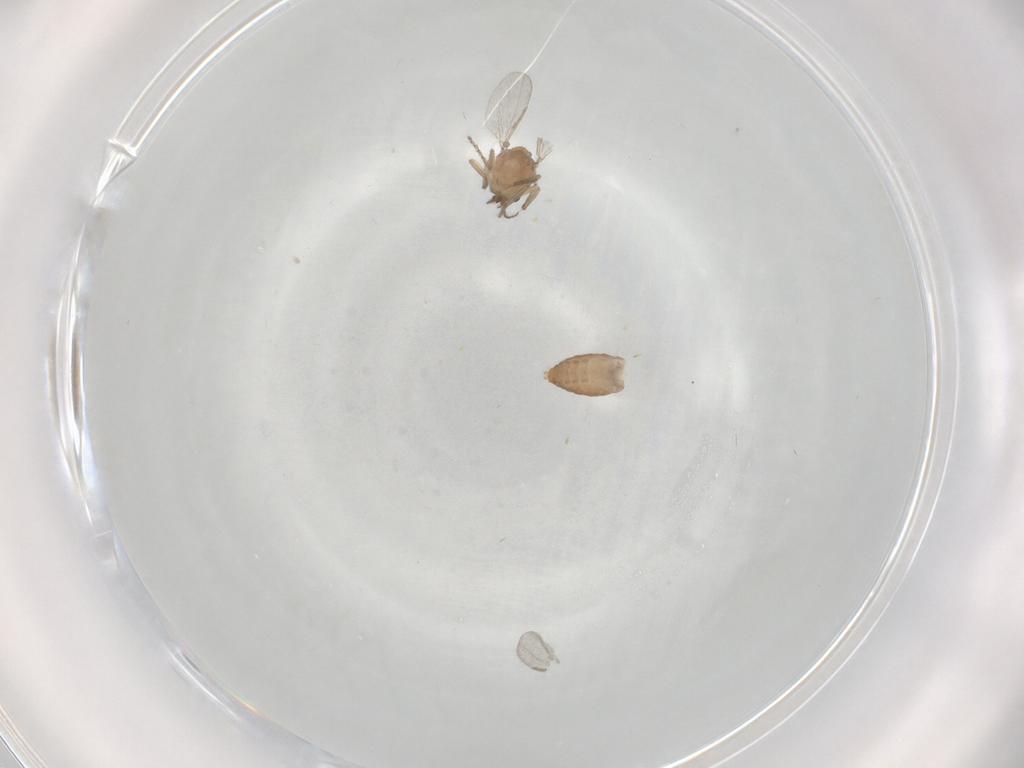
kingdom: Animalia
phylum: Arthropoda
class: Insecta
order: Diptera
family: Ceratopogonidae
